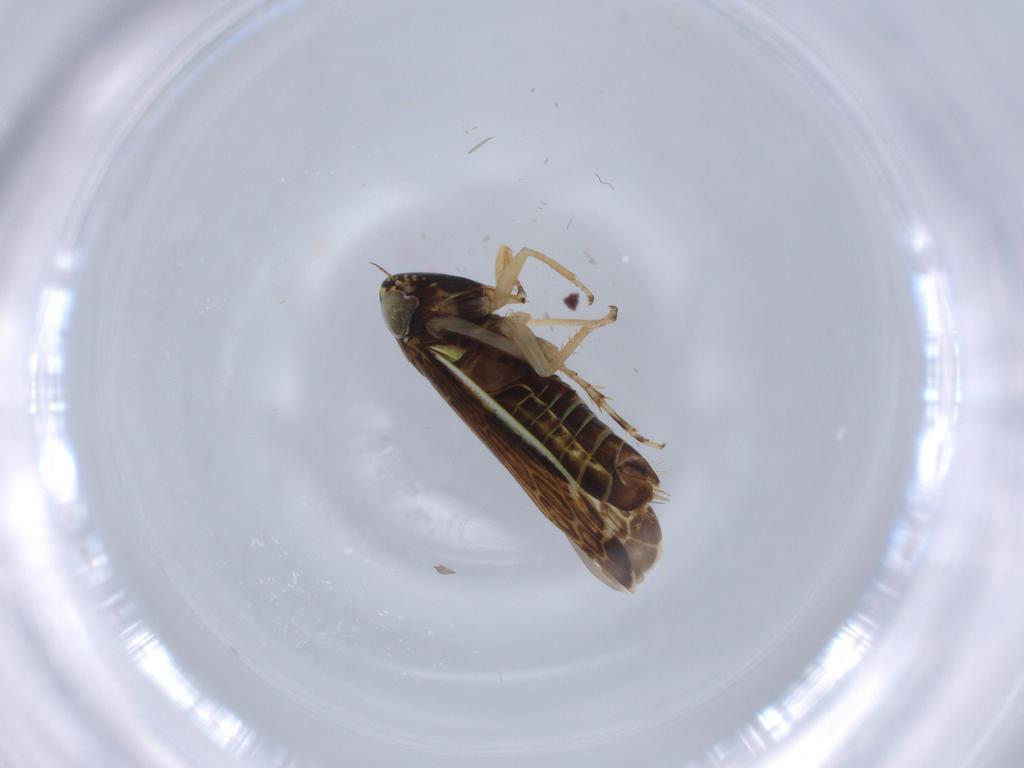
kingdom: Animalia
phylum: Arthropoda
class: Insecta
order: Hemiptera
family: Cicadellidae
